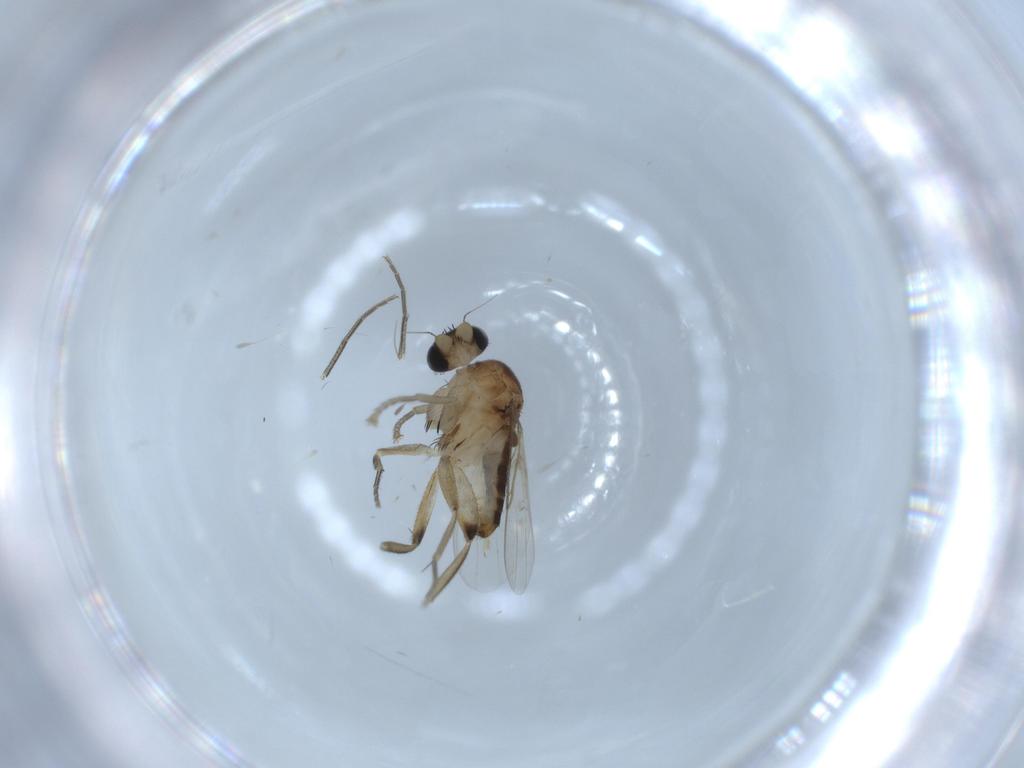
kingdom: Animalia
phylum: Arthropoda
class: Insecta
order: Diptera
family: Phoridae
